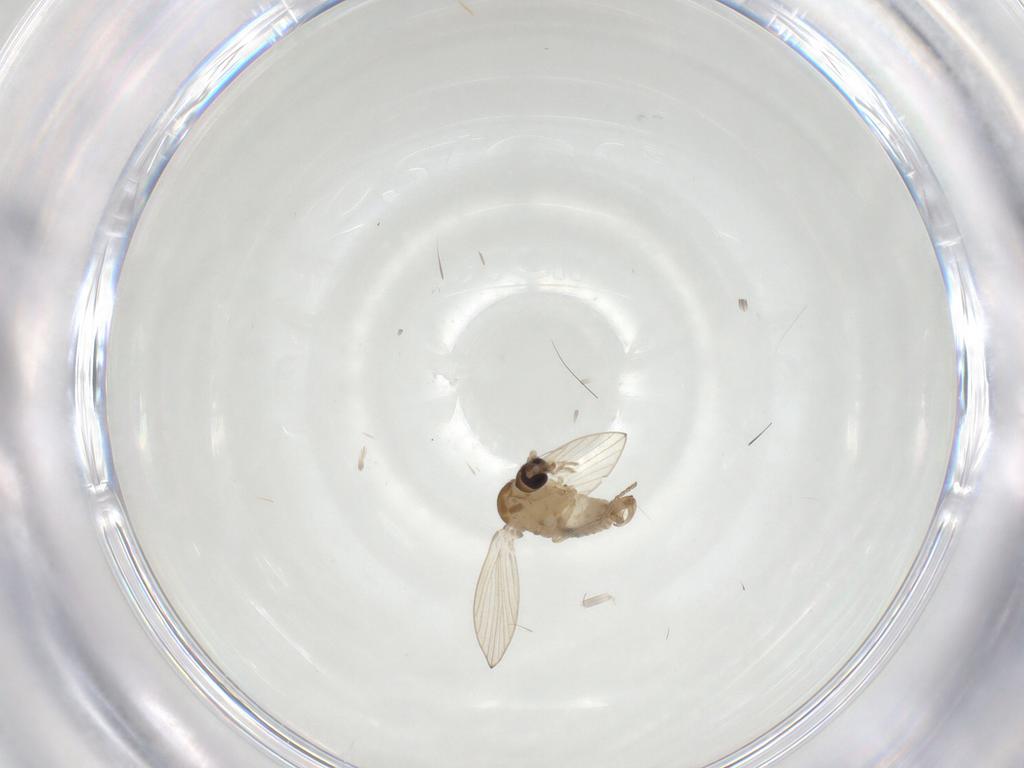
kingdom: Animalia
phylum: Arthropoda
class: Insecta
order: Diptera
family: Psychodidae
